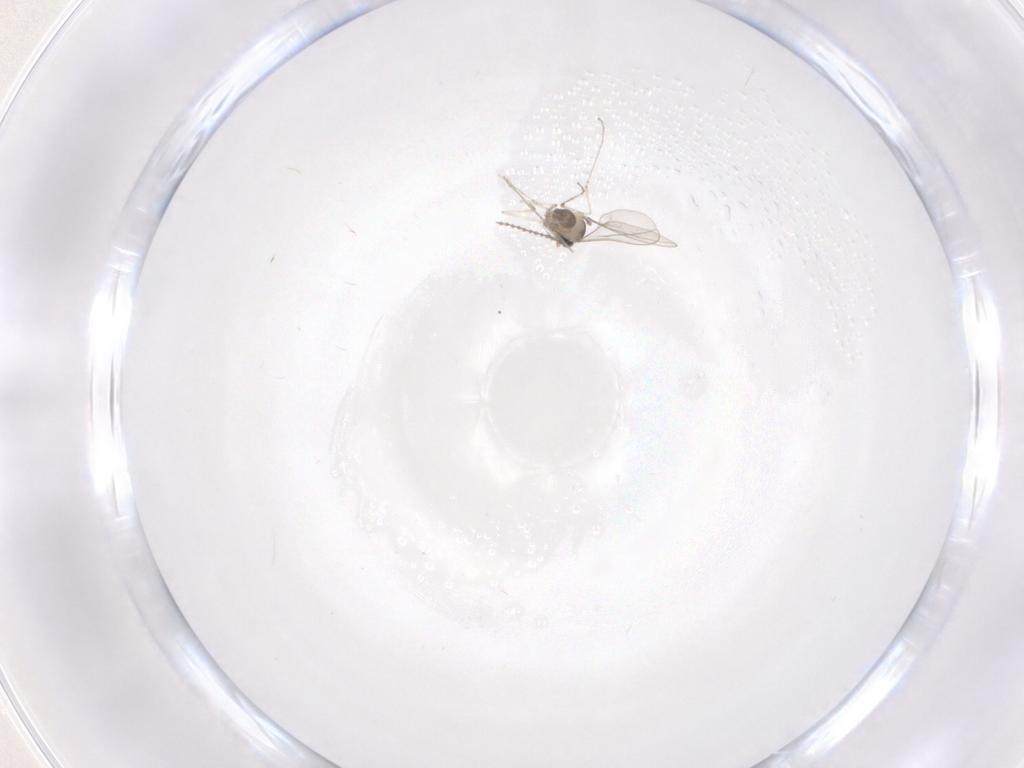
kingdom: Animalia
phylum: Arthropoda
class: Insecta
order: Diptera
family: Cecidomyiidae
